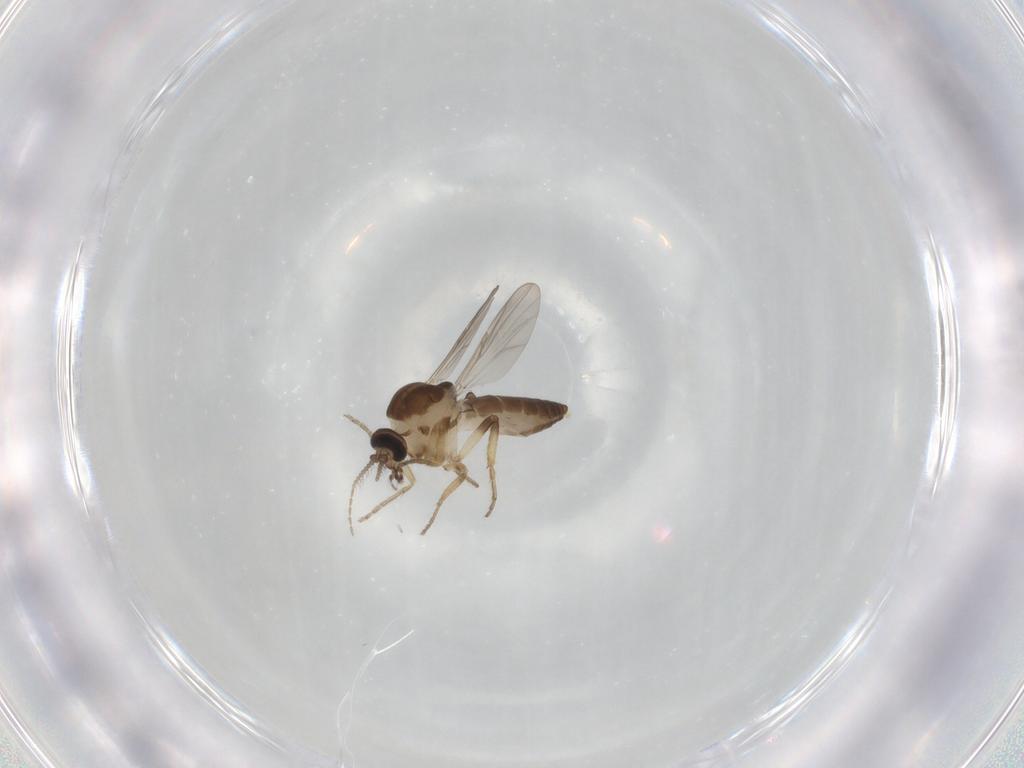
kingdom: Animalia
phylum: Arthropoda
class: Insecta
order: Diptera
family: Ceratopogonidae
